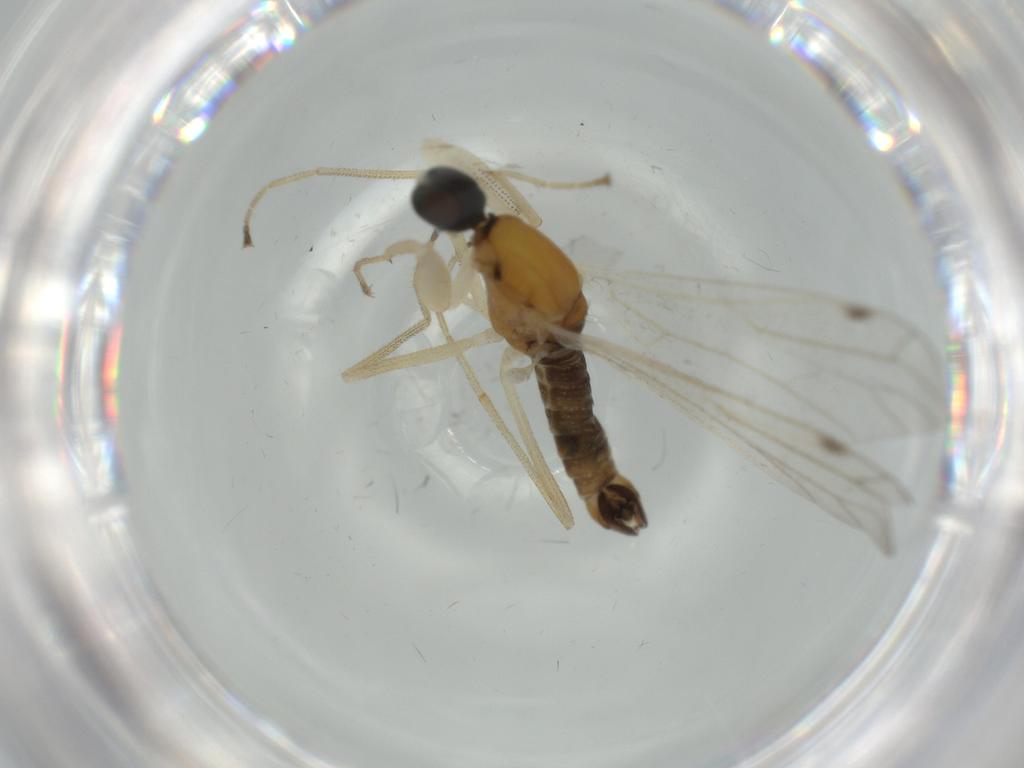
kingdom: Animalia
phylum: Arthropoda
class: Insecta
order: Diptera
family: Empididae
